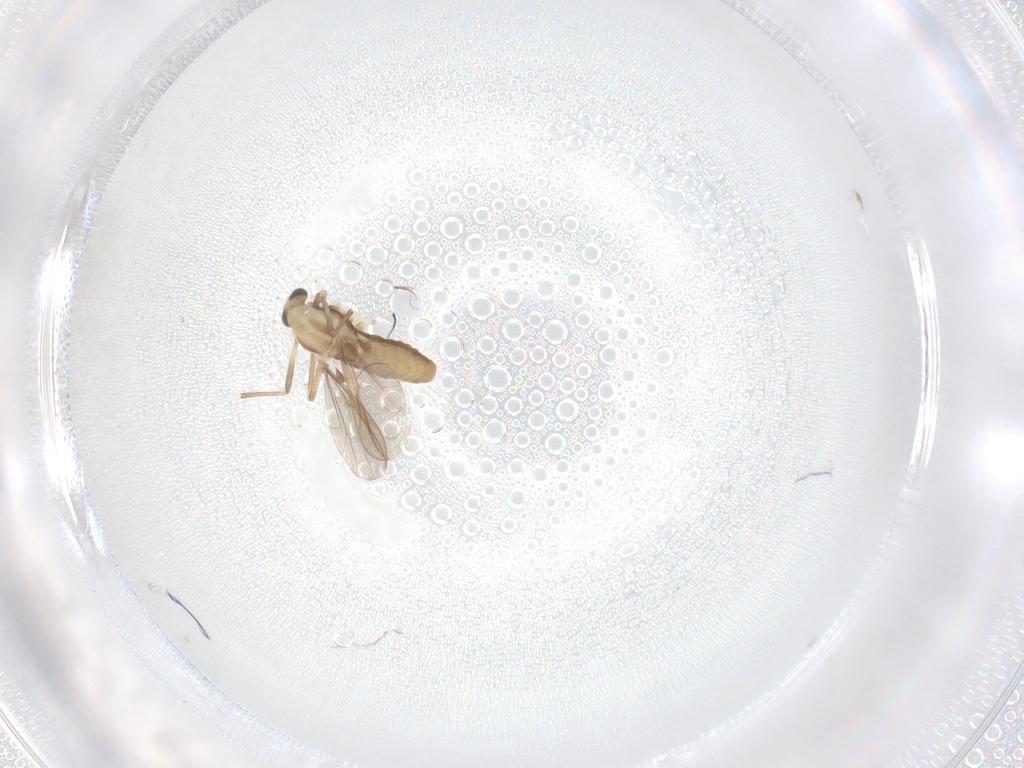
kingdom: Animalia
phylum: Arthropoda
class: Insecta
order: Diptera
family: Chironomidae
